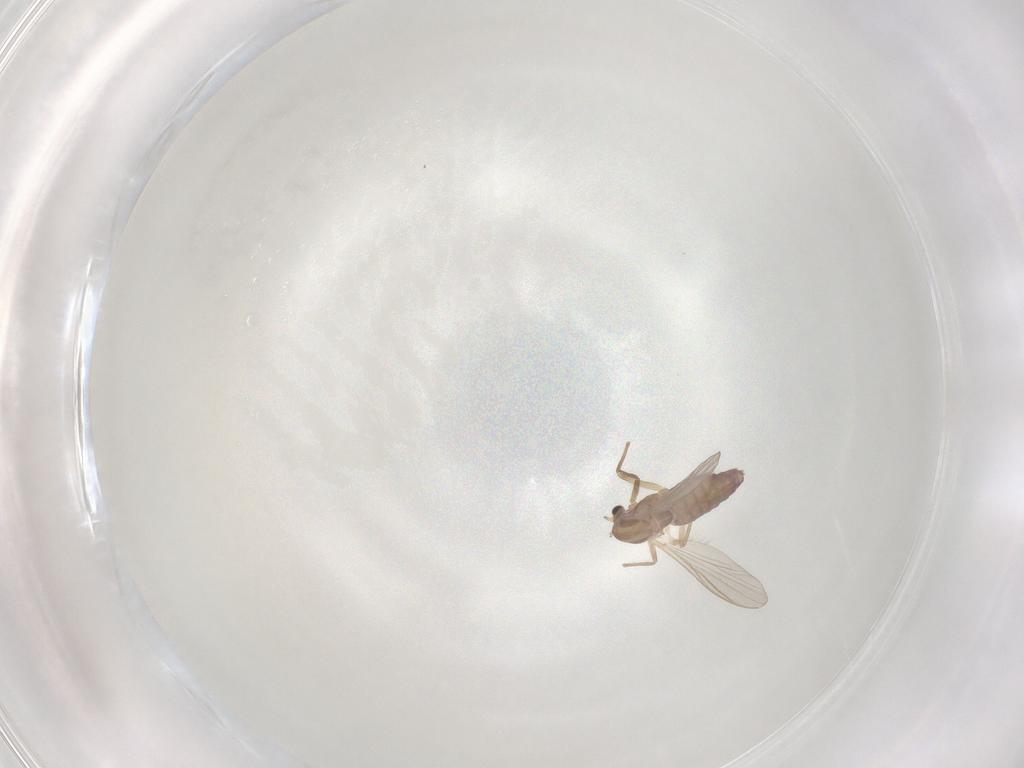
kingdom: Animalia
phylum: Arthropoda
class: Insecta
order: Diptera
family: Chironomidae
